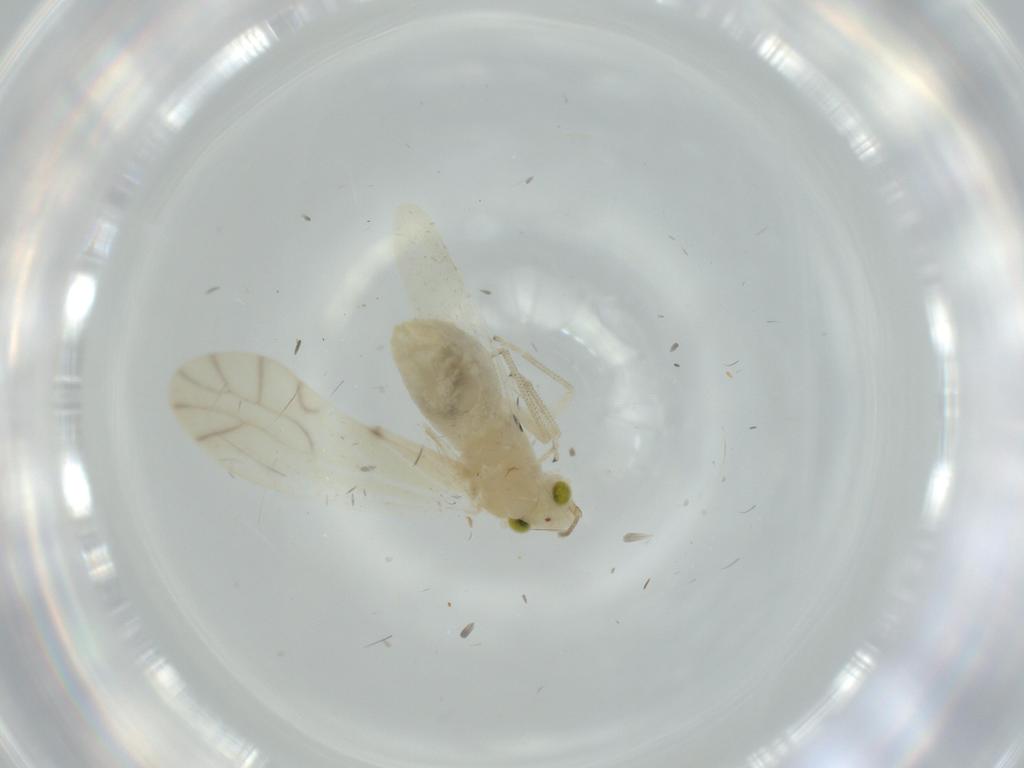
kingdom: Animalia
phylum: Arthropoda
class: Insecta
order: Psocodea
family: Caeciliusidae
